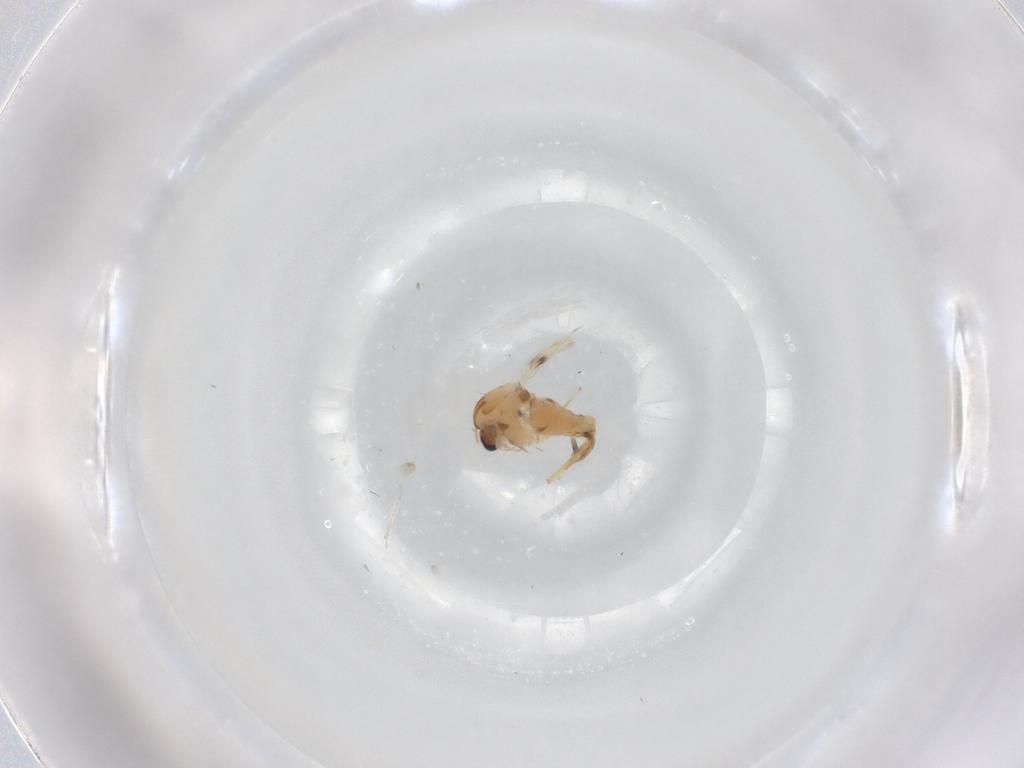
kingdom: Animalia
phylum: Arthropoda
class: Insecta
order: Diptera
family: Chironomidae
